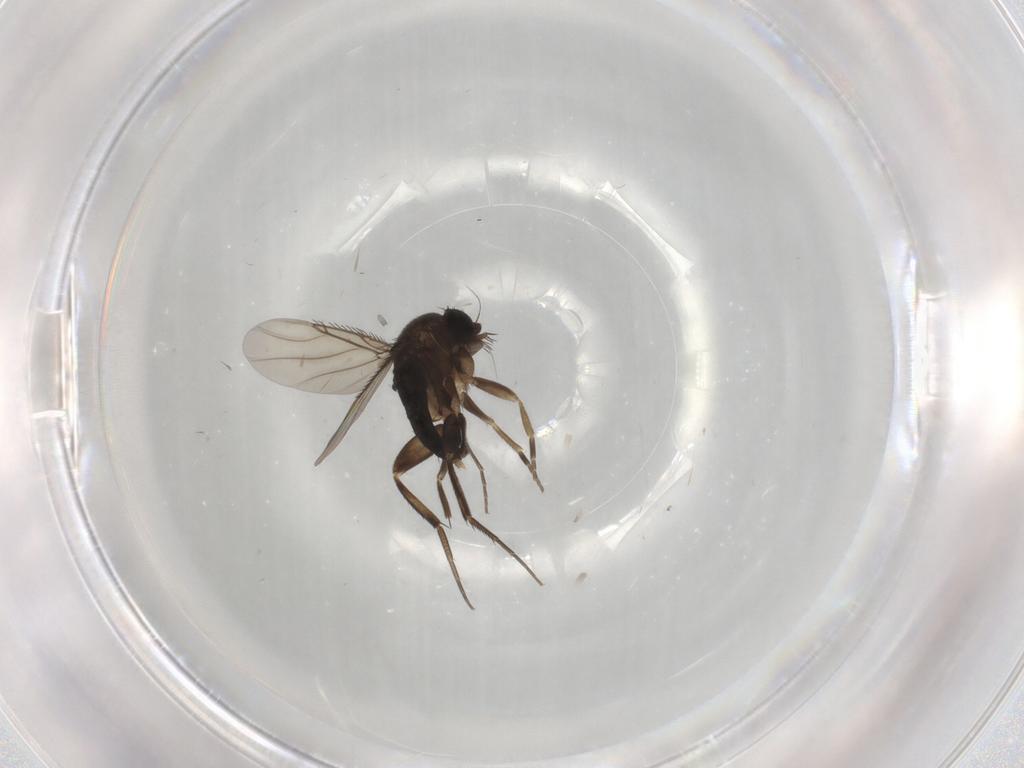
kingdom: Animalia
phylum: Arthropoda
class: Insecta
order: Diptera
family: Phoridae
